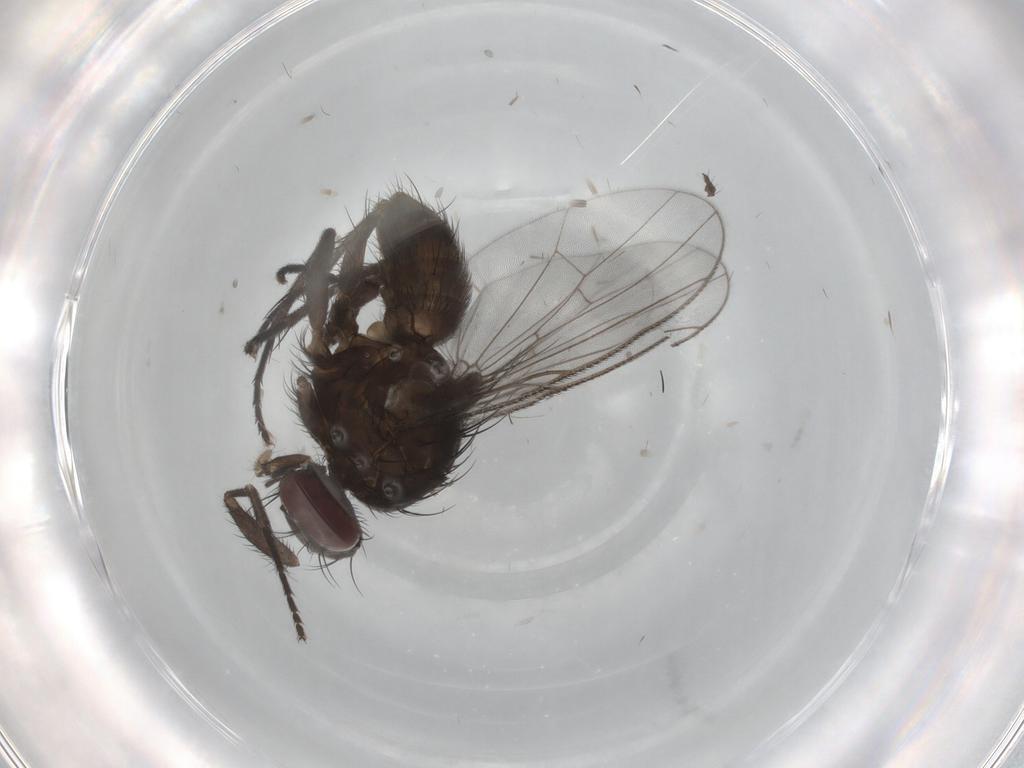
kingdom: Animalia
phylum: Arthropoda
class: Insecta
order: Diptera
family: Muscidae
